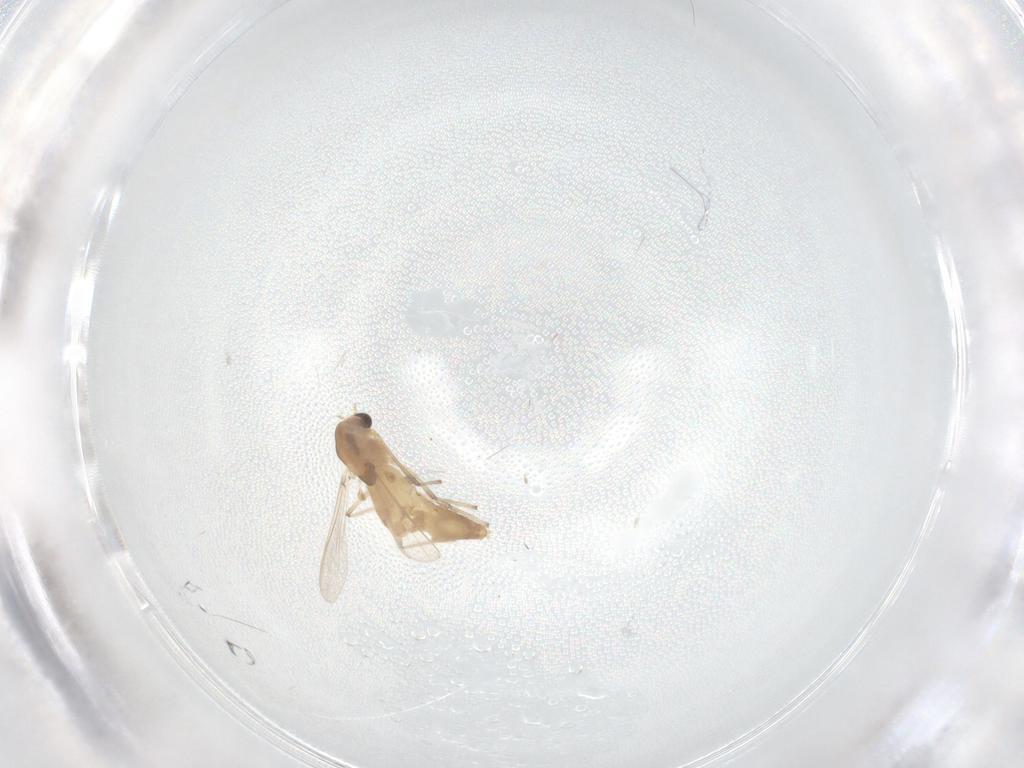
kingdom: Animalia
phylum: Arthropoda
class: Insecta
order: Diptera
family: Chironomidae
